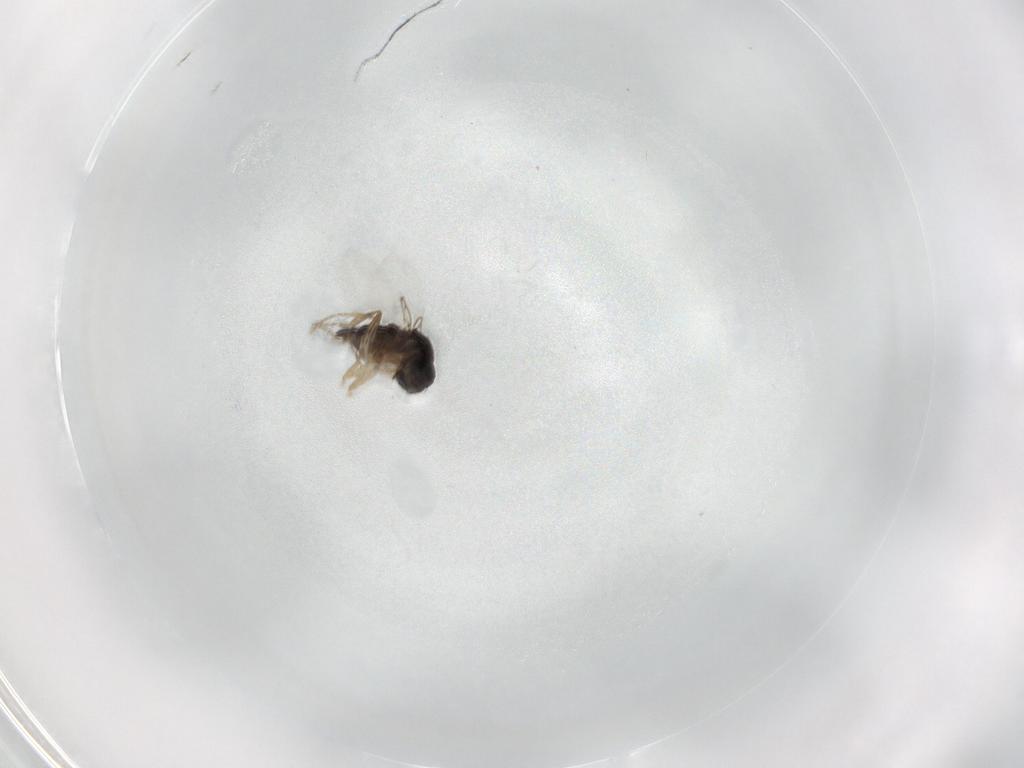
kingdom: Animalia
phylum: Arthropoda
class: Insecta
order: Diptera
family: Phoridae
